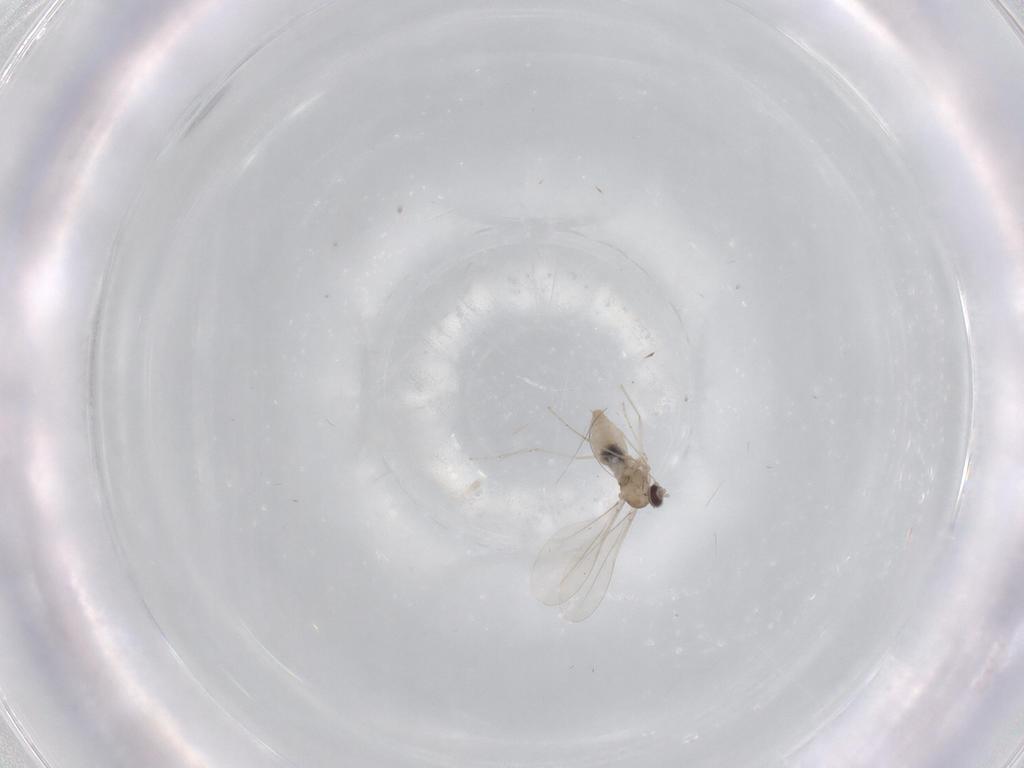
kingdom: Animalia
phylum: Arthropoda
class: Insecta
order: Diptera
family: Cecidomyiidae
